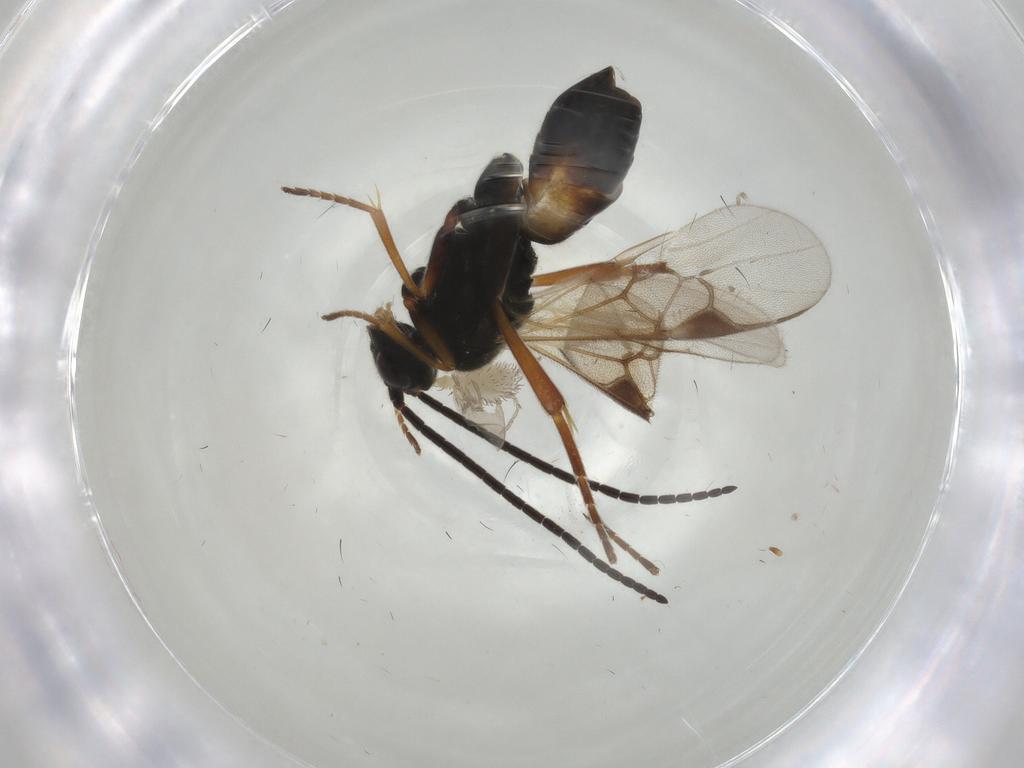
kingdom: Animalia
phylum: Arthropoda
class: Insecta
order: Hymenoptera
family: Braconidae
